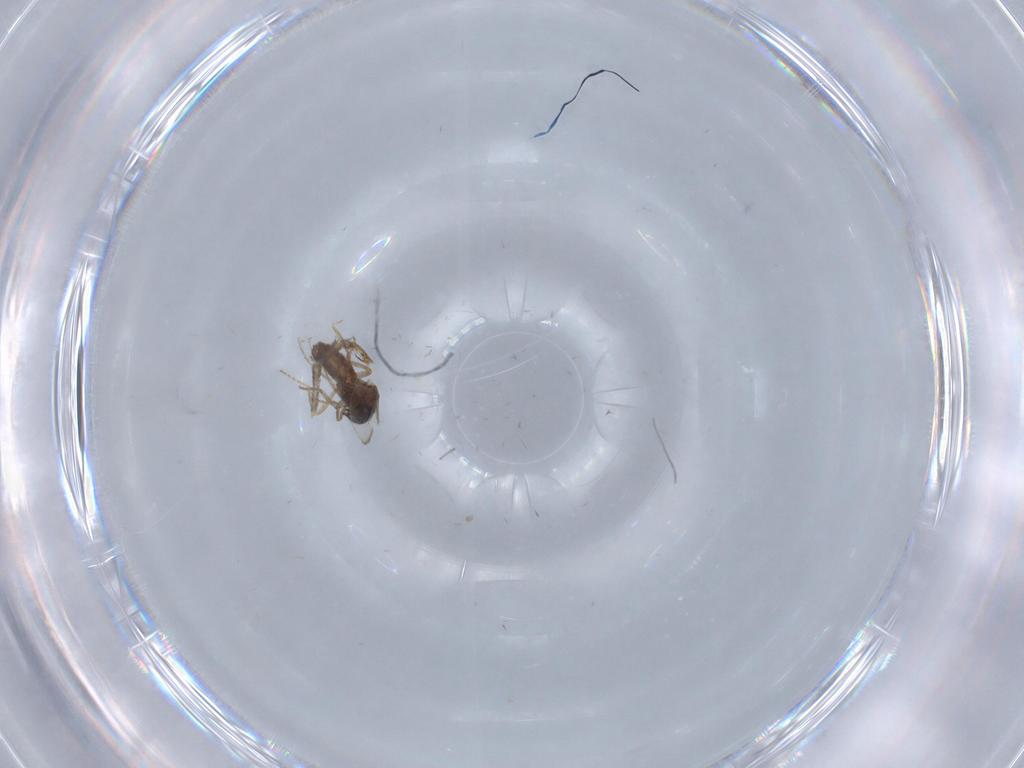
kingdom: Animalia
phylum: Arthropoda
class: Insecta
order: Diptera
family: Ceratopogonidae
